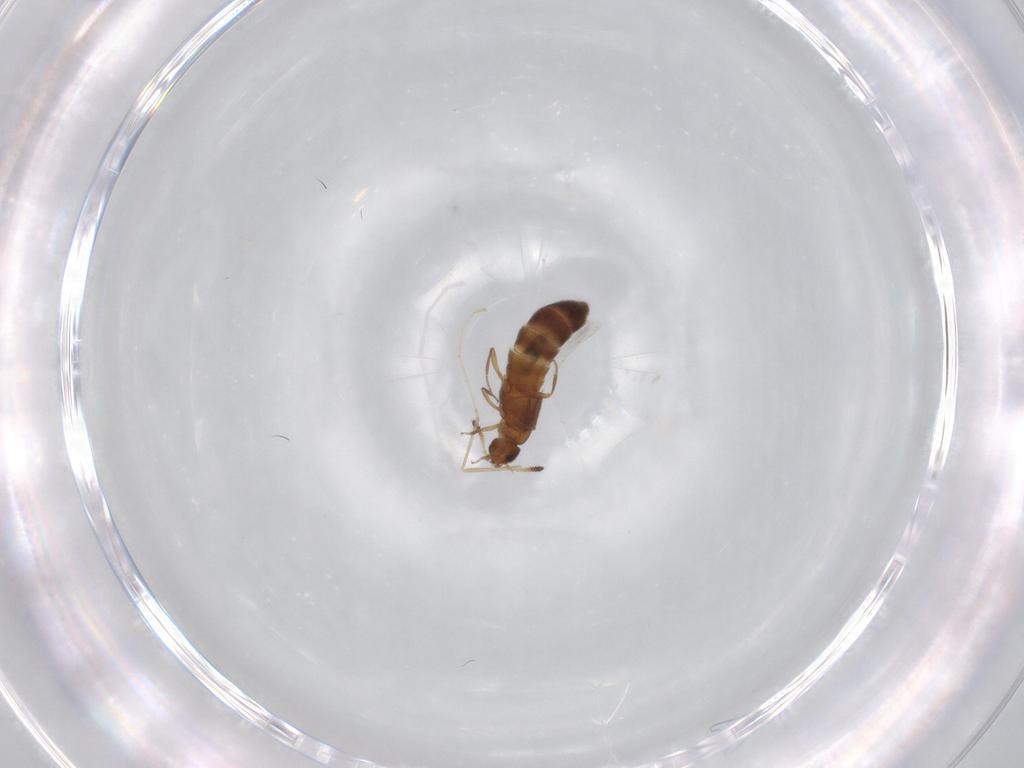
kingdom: Animalia
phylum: Arthropoda
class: Insecta
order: Coleoptera
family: Staphylinidae
